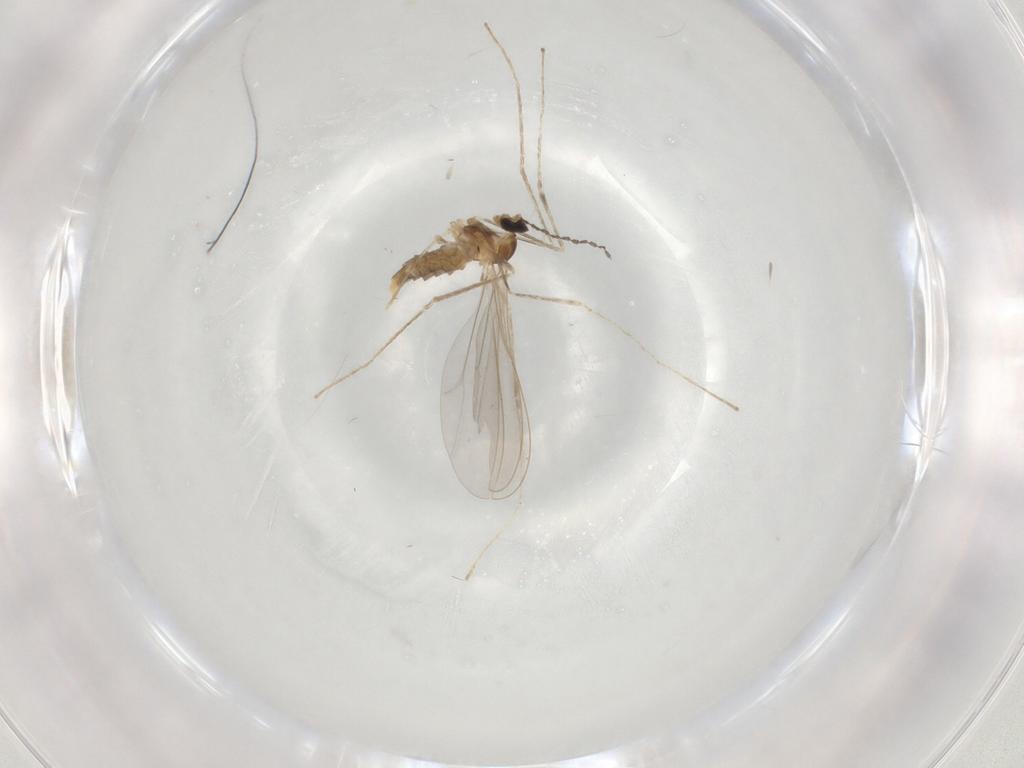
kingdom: Animalia
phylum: Arthropoda
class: Insecta
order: Diptera
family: Cecidomyiidae
